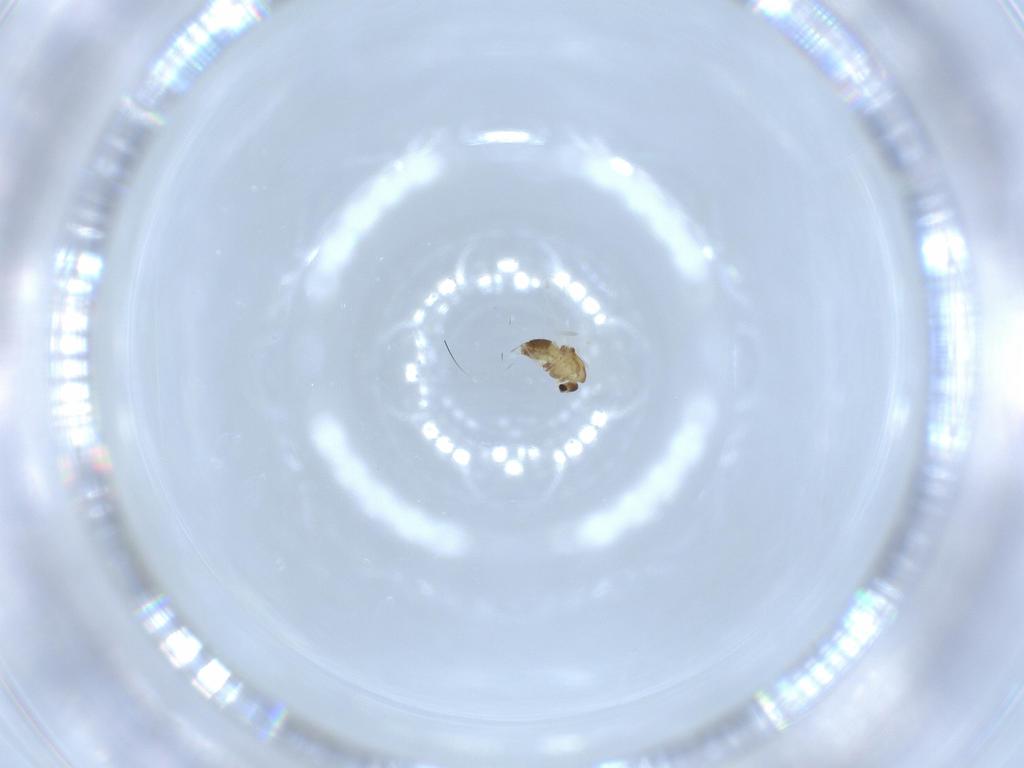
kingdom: Animalia
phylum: Arthropoda
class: Insecta
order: Diptera
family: Chironomidae
